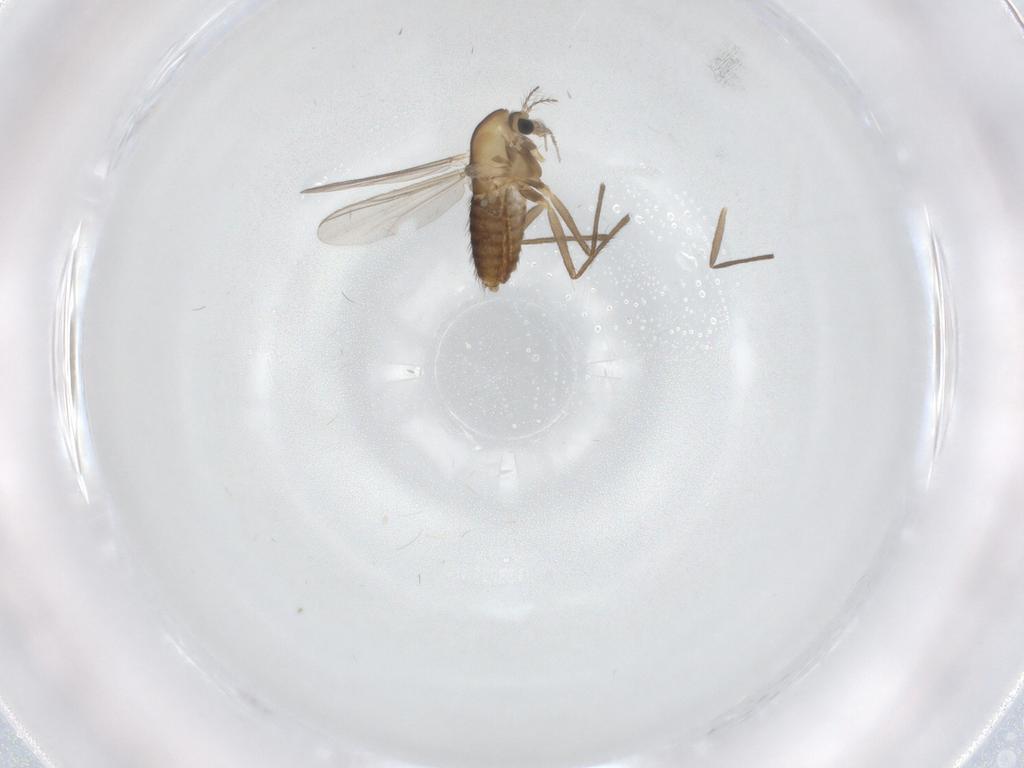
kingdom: Animalia
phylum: Arthropoda
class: Insecta
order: Diptera
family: Chironomidae
